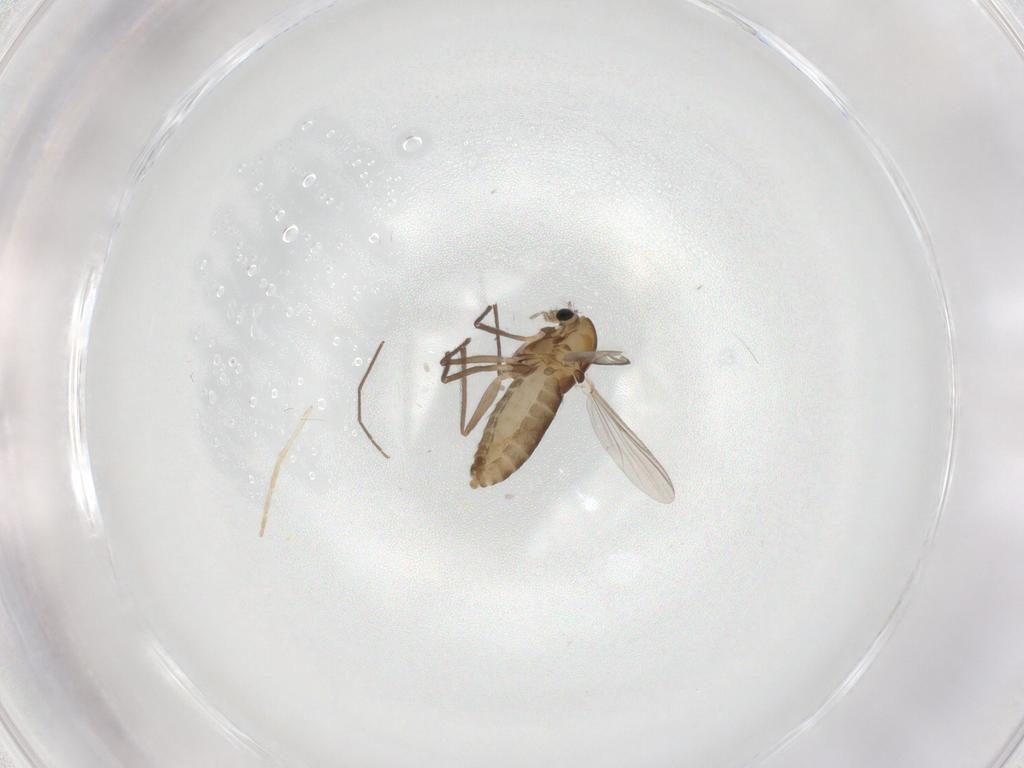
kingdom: Animalia
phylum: Arthropoda
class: Insecta
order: Diptera
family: Chironomidae
